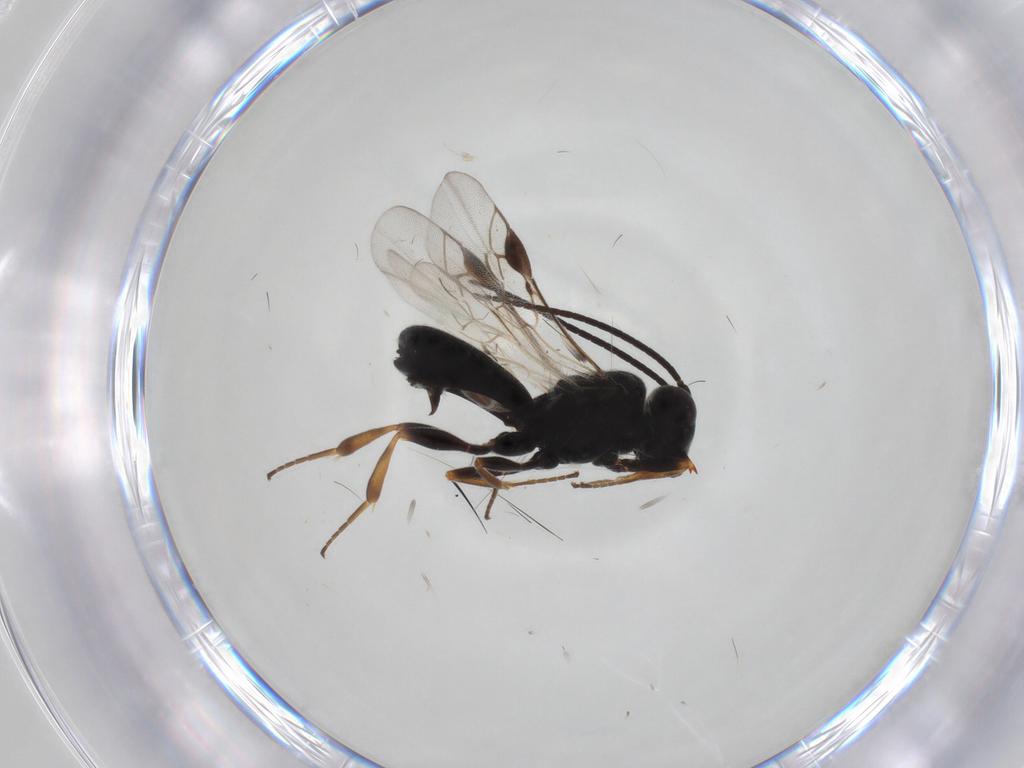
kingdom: Animalia
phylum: Arthropoda
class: Insecta
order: Hymenoptera
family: Braconidae
